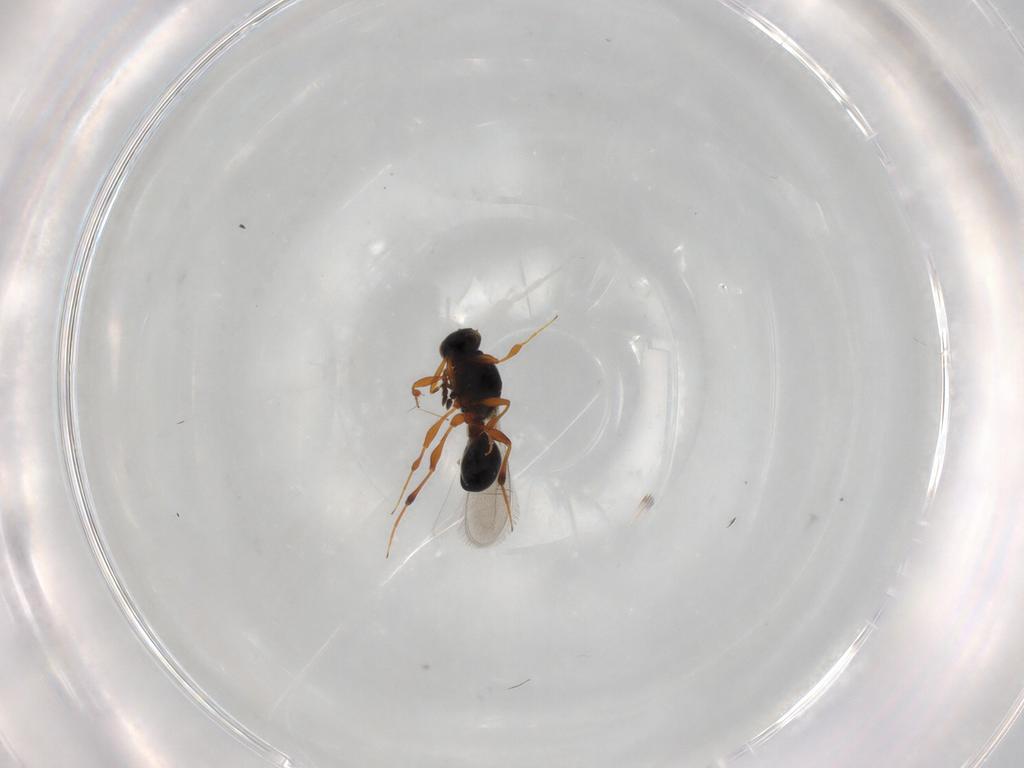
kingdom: Animalia
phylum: Arthropoda
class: Insecta
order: Hymenoptera
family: Platygastridae
